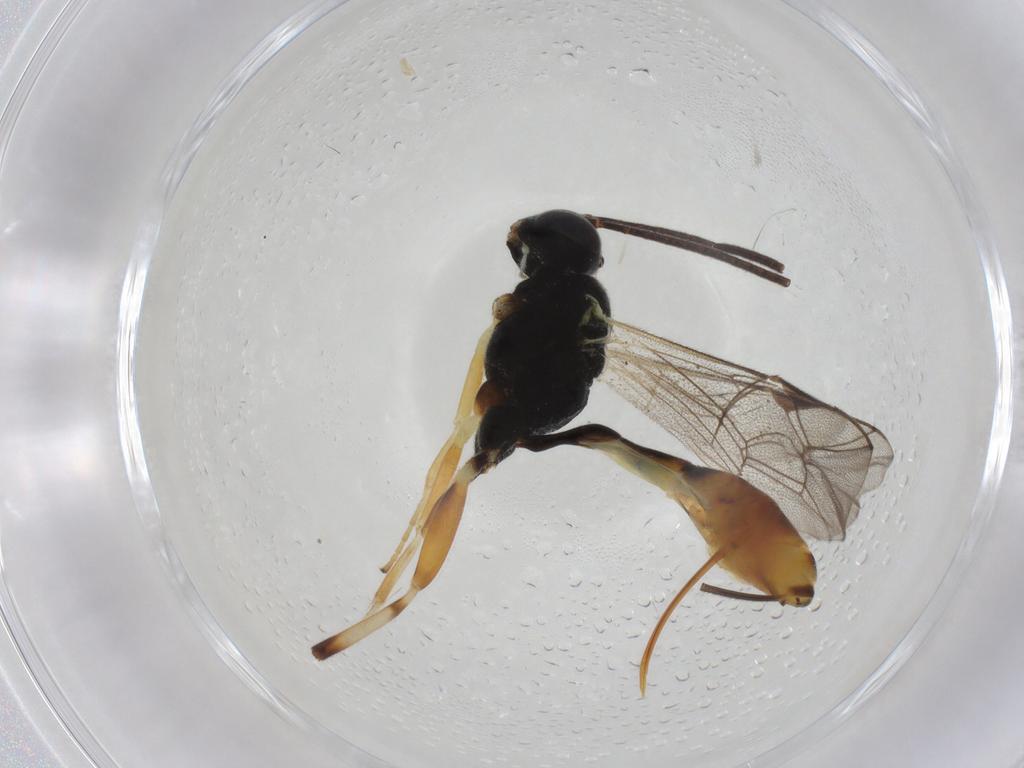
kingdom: Animalia
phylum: Arthropoda
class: Insecta
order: Hymenoptera
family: Ichneumonidae
